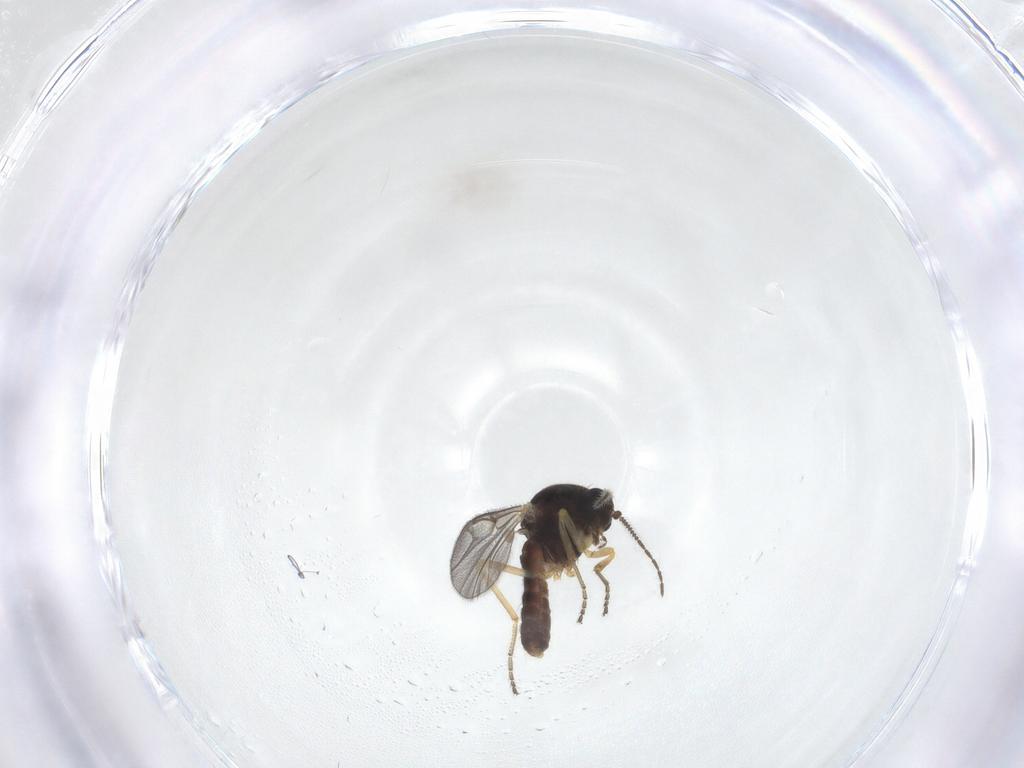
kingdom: Animalia
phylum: Arthropoda
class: Insecta
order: Diptera
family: Ceratopogonidae
